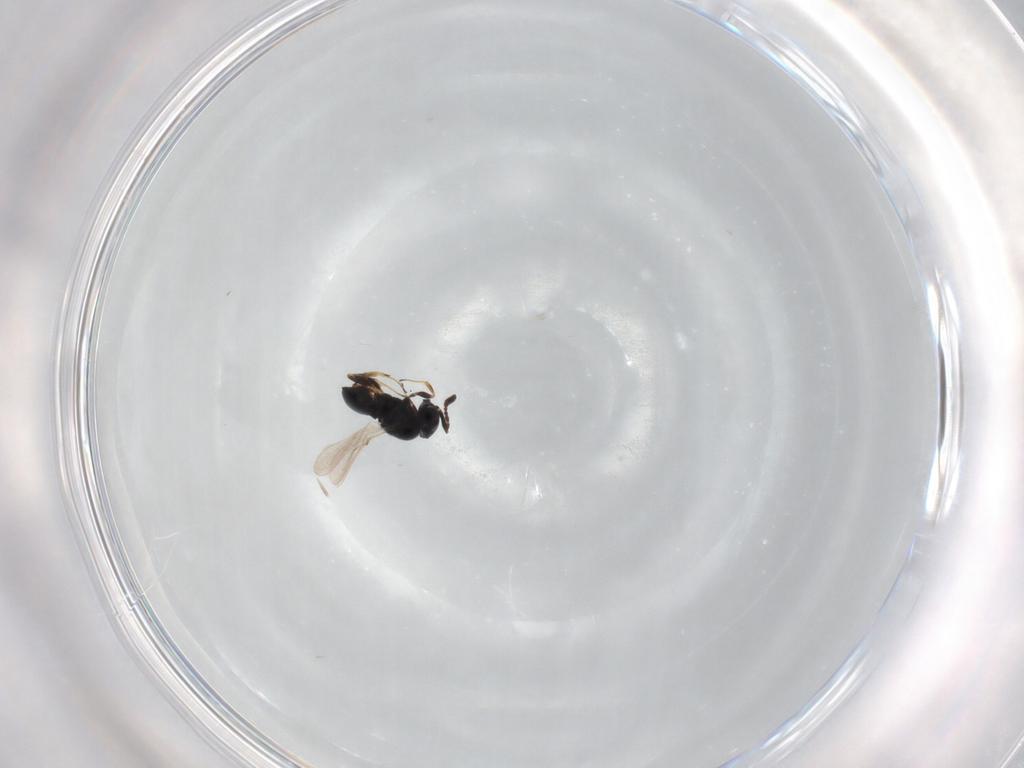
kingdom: Animalia
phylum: Arthropoda
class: Insecta
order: Hymenoptera
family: Scelionidae
